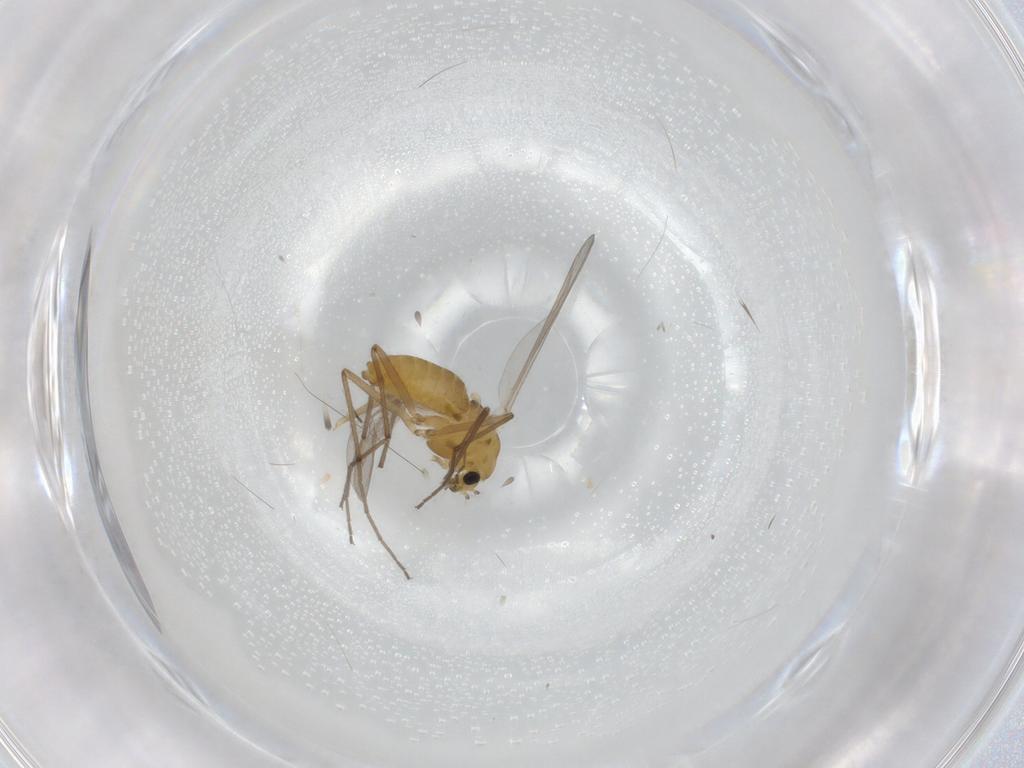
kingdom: Animalia
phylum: Arthropoda
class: Insecta
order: Diptera
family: Chironomidae
